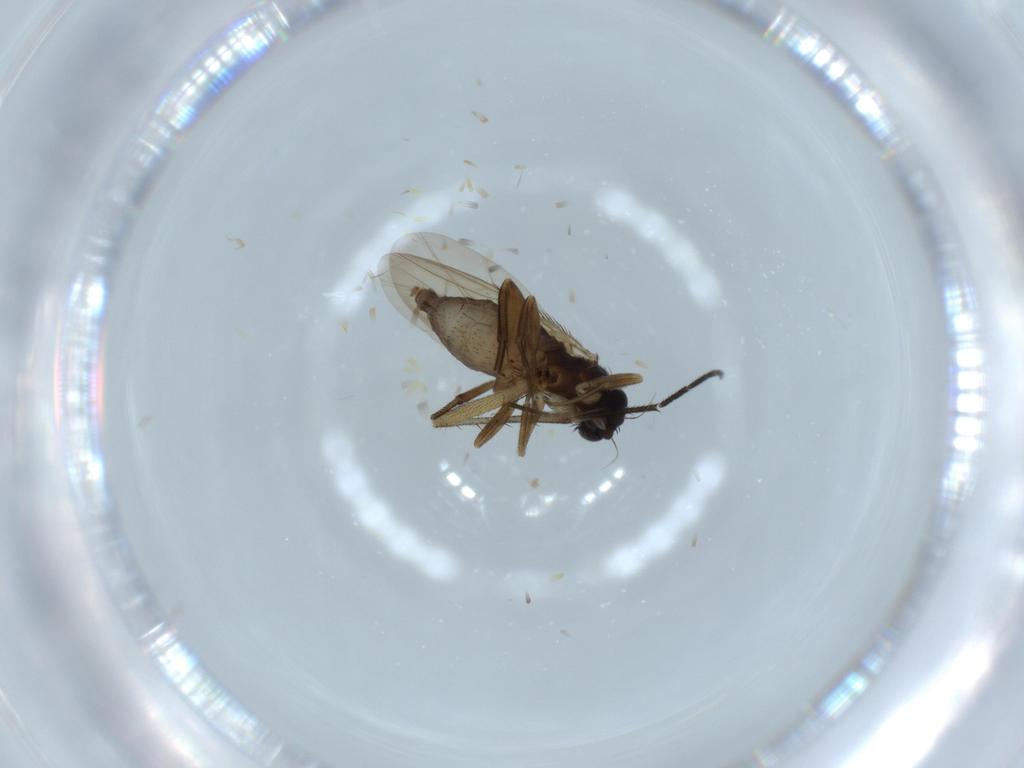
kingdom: Animalia
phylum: Arthropoda
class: Insecta
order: Diptera
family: Phoridae
